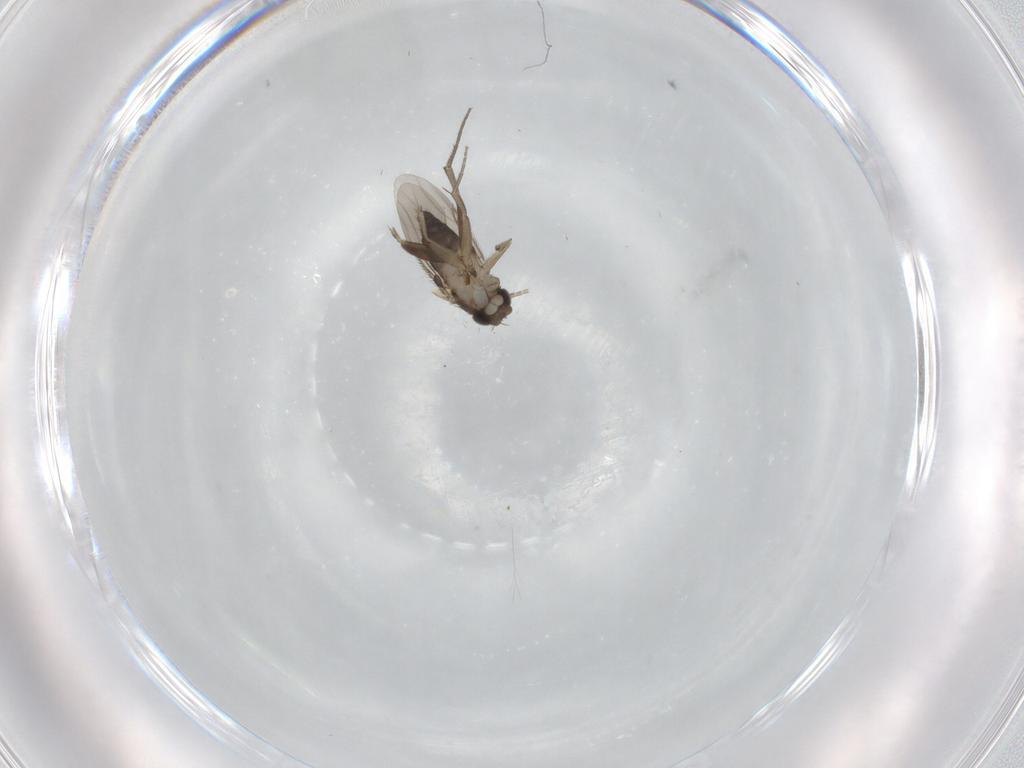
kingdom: Animalia
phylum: Arthropoda
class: Insecta
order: Diptera
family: Phoridae
